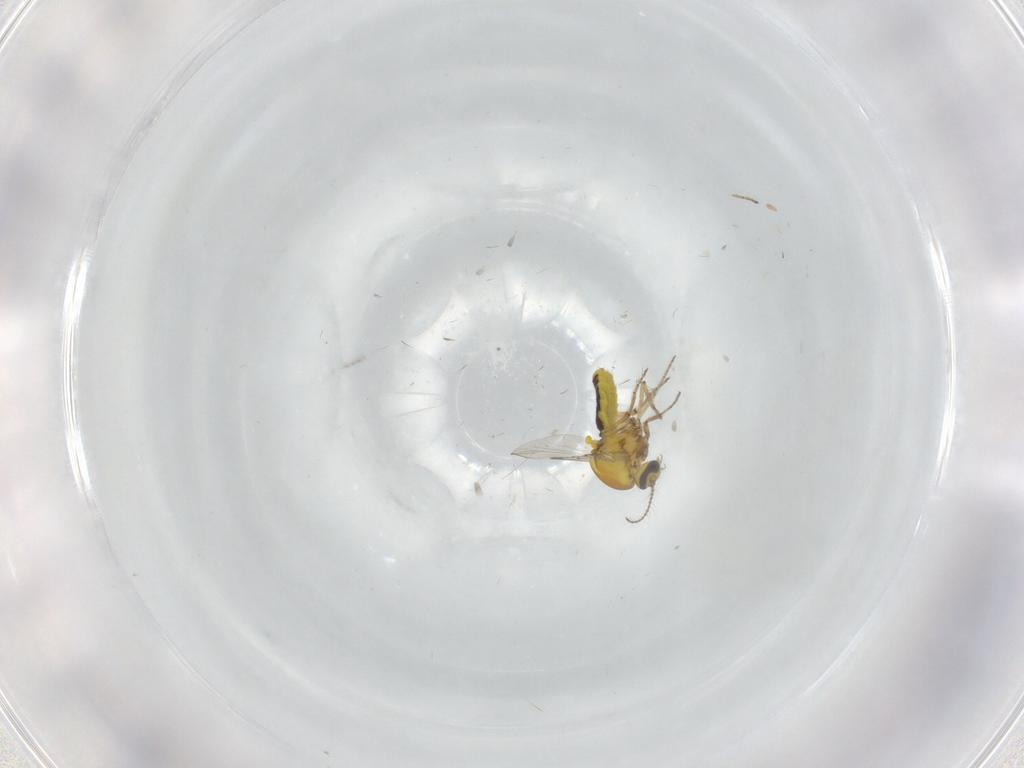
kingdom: Animalia
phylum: Arthropoda
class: Insecta
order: Diptera
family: Ceratopogonidae
